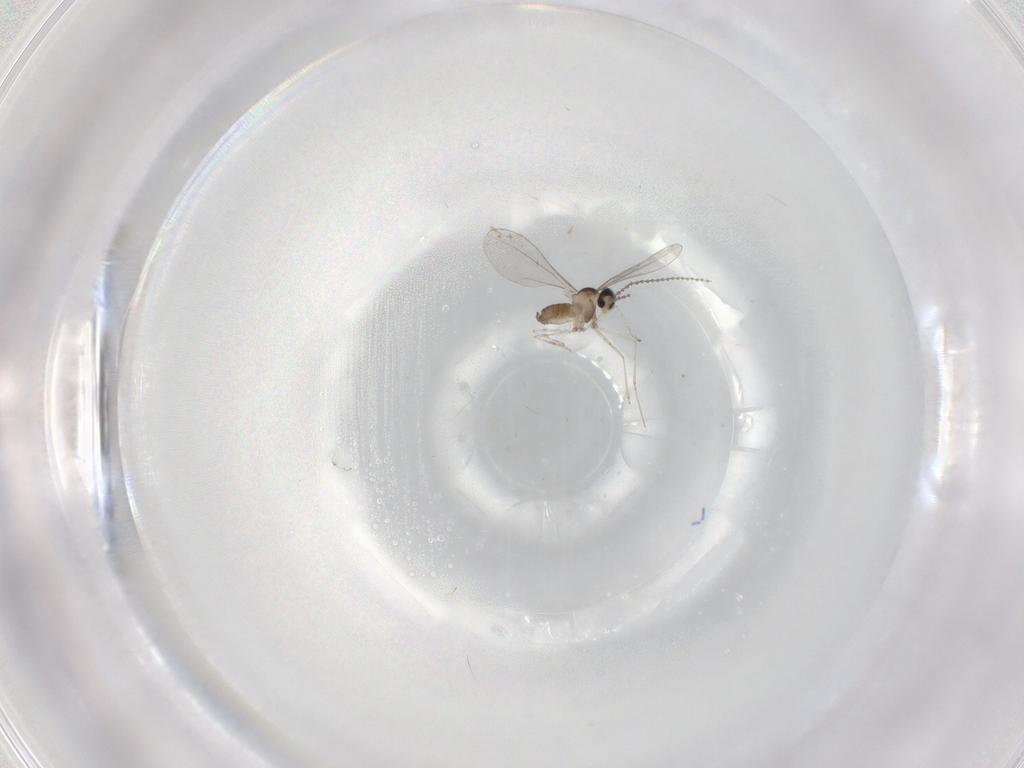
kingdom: Animalia
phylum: Arthropoda
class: Insecta
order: Diptera
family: Cecidomyiidae
